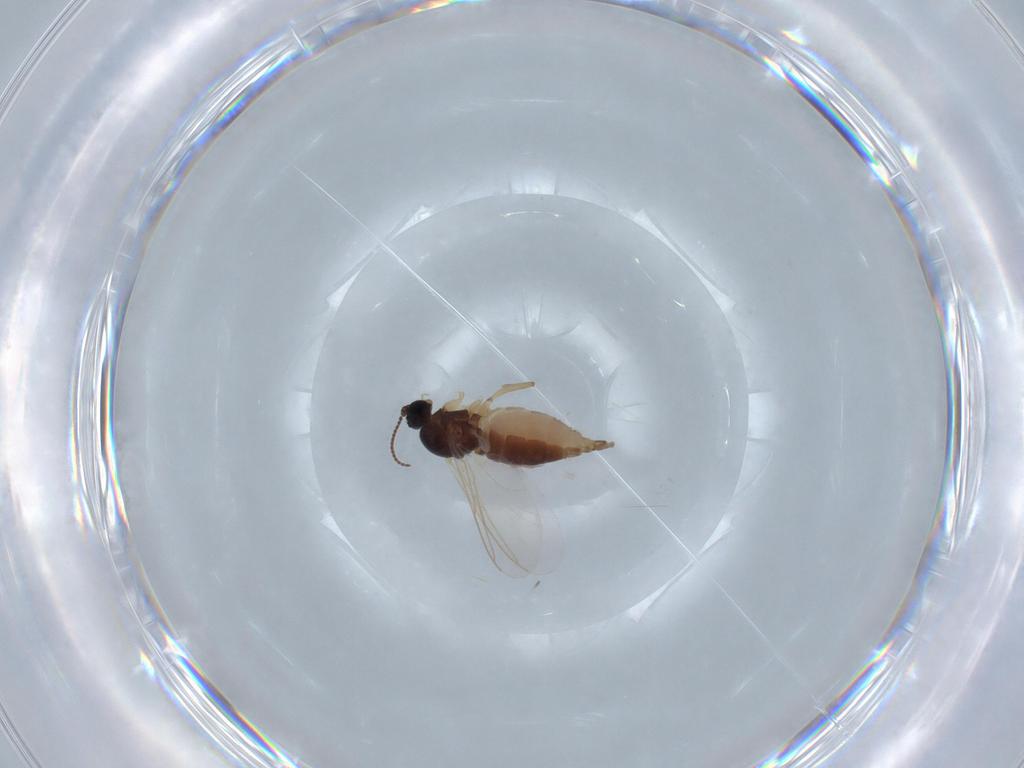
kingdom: Animalia
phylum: Arthropoda
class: Insecta
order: Diptera
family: Sciaridae
